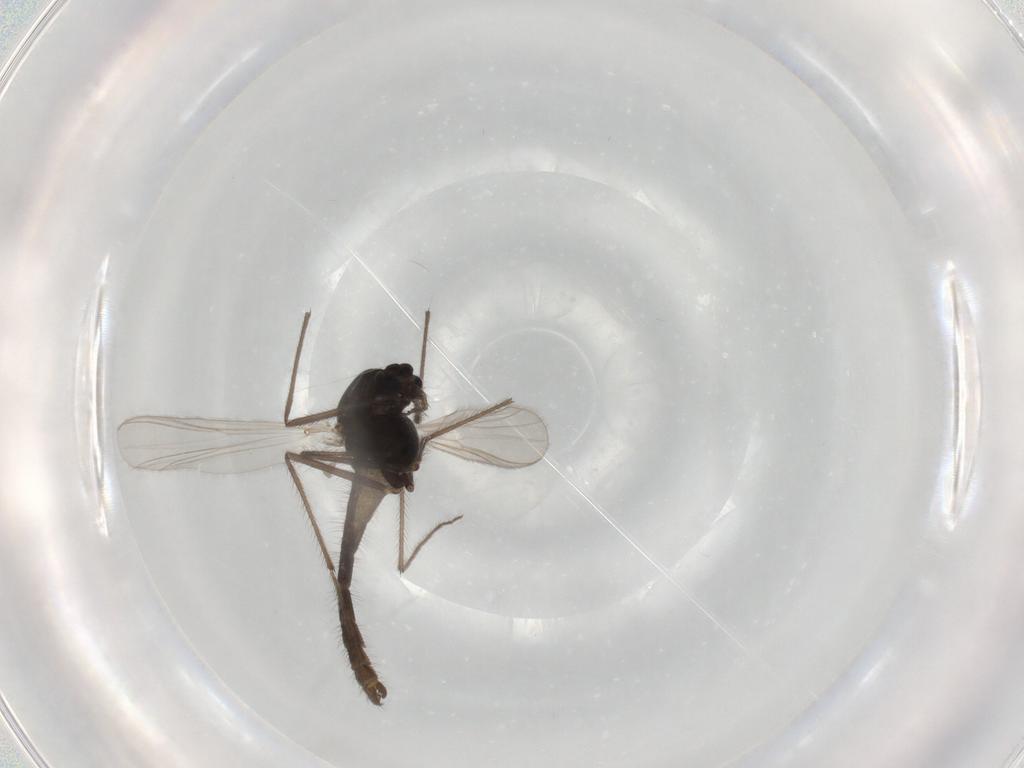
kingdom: Animalia
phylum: Arthropoda
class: Insecta
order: Diptera
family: Chironomidae
